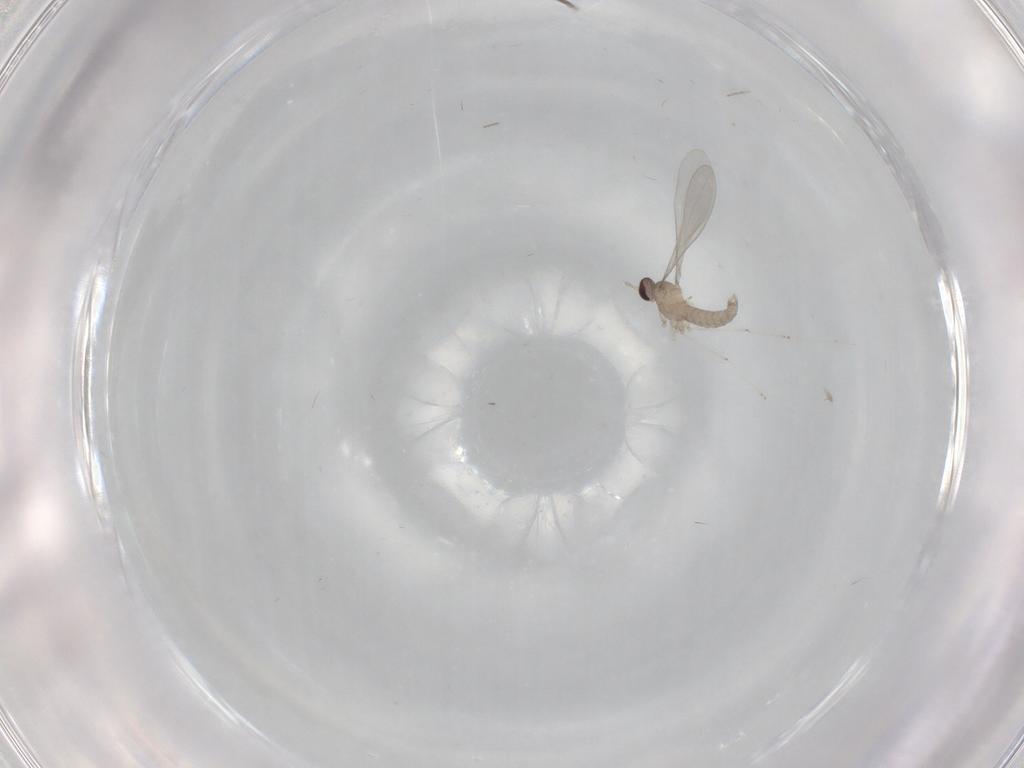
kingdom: Animalia
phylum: Arthropoda
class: Insecta
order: Diptera
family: Cecidomyiidae
